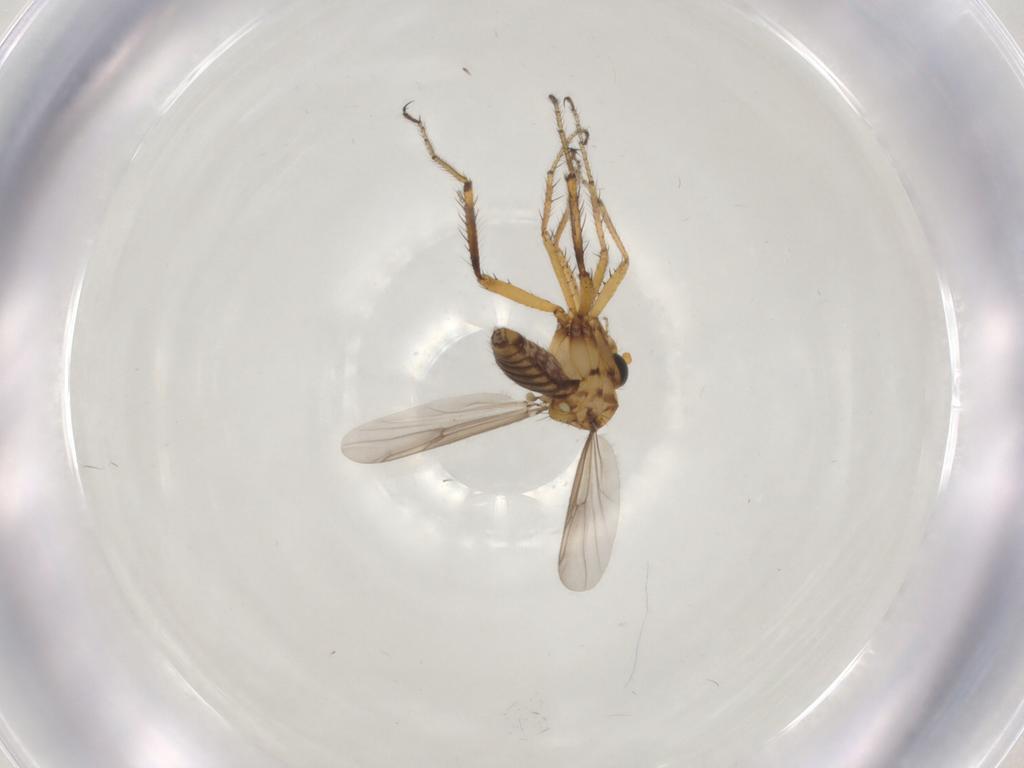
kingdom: Animalia
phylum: Arthropoda
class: Insecta
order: Diptera
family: Ceratopogonidae
